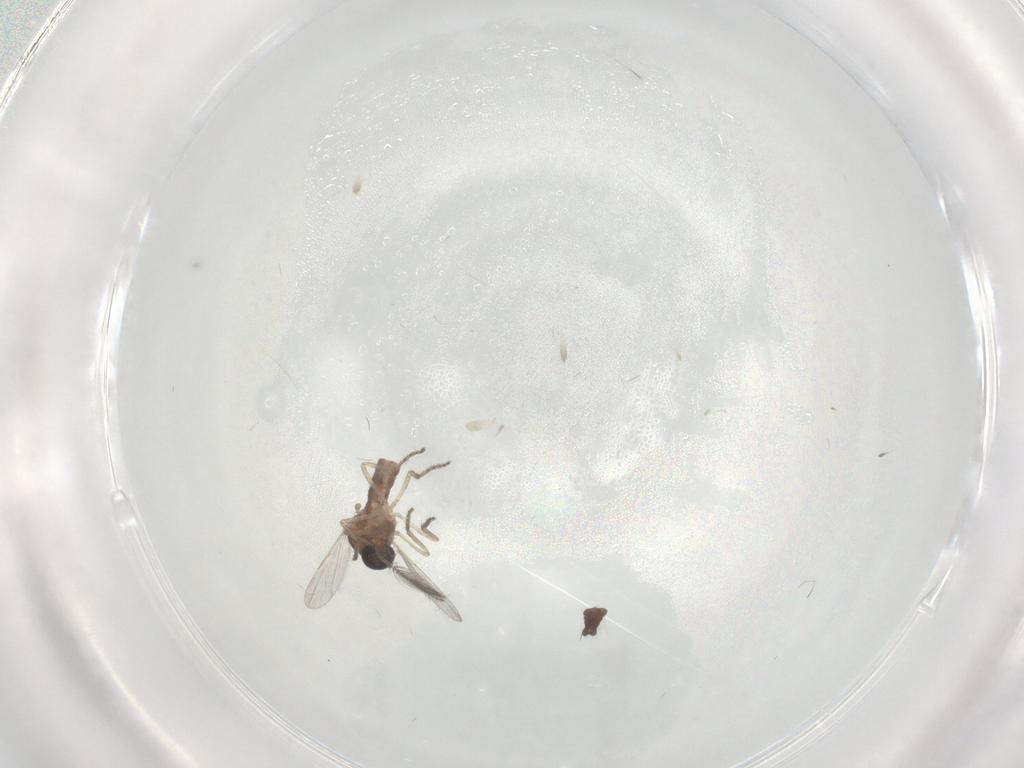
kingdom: Animalia
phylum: Arthropoda
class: Insecta
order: Diptera
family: Ceratopogonidae
